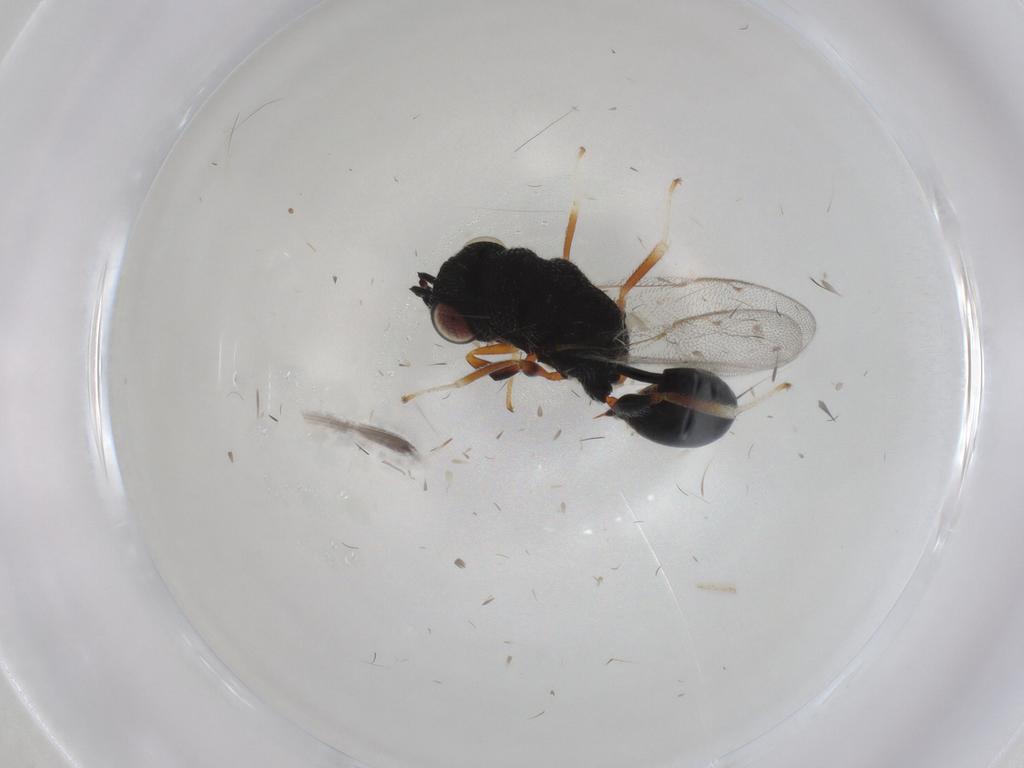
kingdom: Animalia
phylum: Arthropoda
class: Insecta
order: Hymenoptera
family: Eurytomidae
